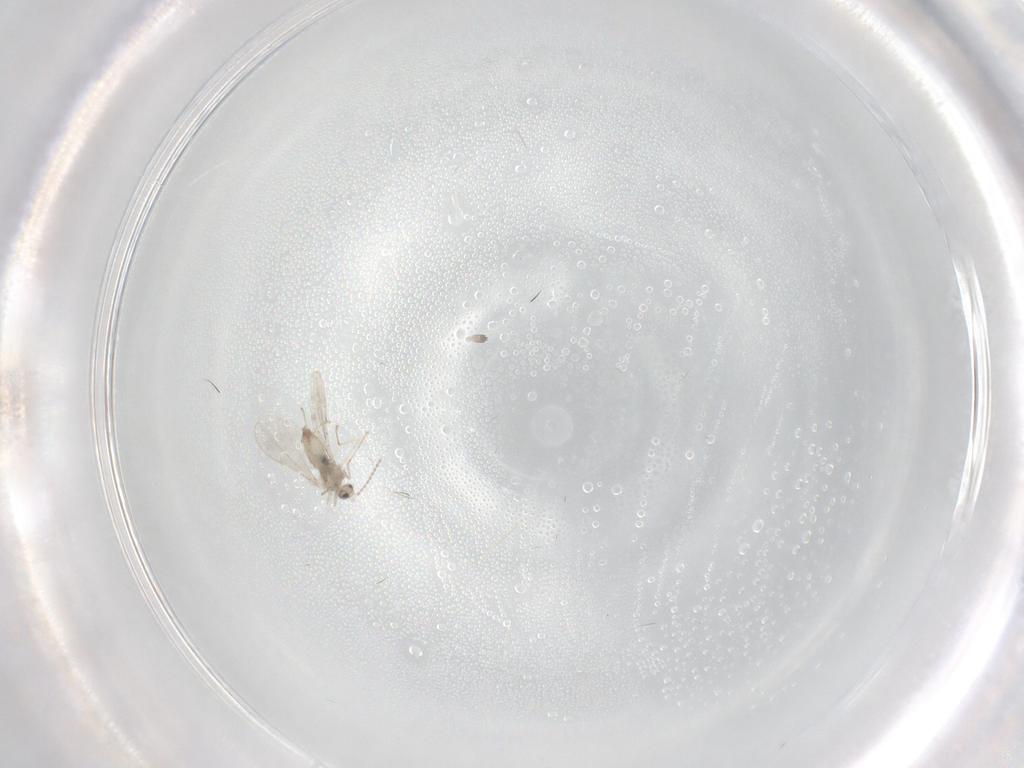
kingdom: Animalia
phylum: Arthropoda
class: Insecta
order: Diptera
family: Cecidomyiidae
